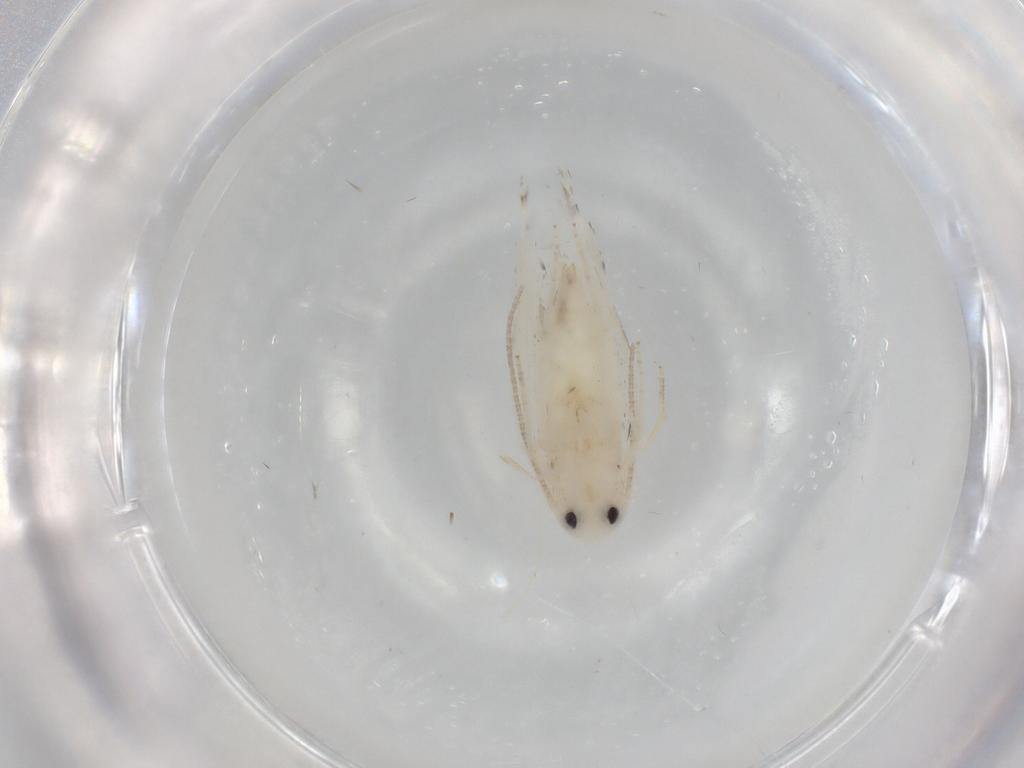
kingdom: Animalia
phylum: Arthropoda
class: Insecta
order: Lepidoptera
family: Gelechiidae
